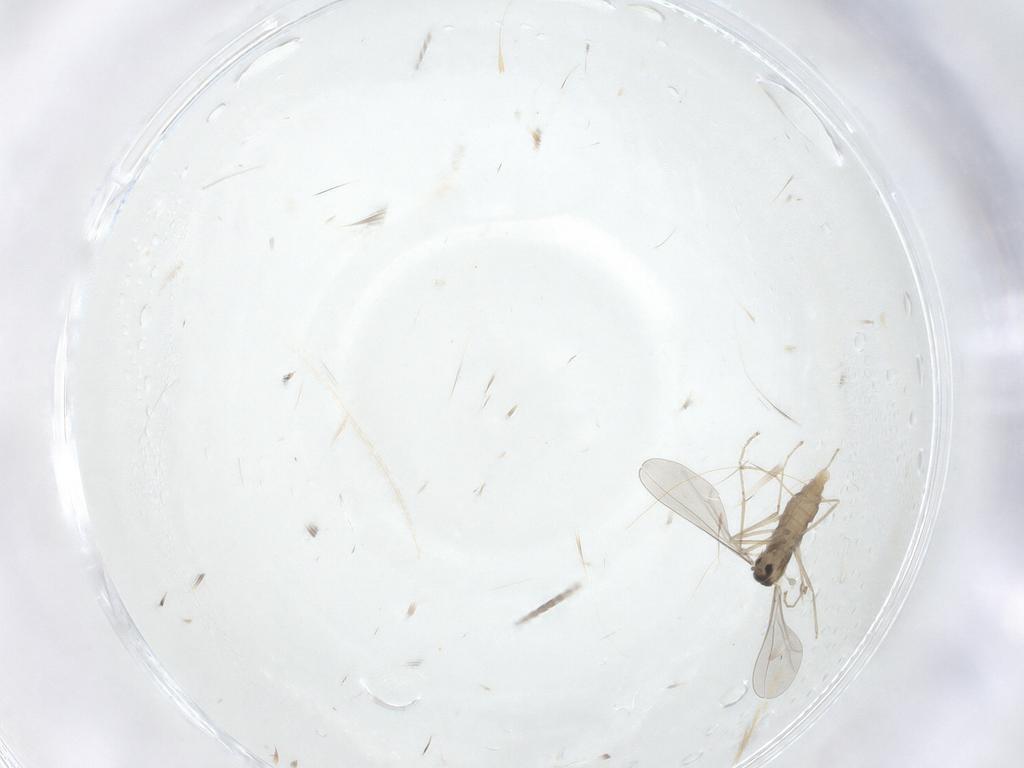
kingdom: Animalia
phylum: Arthropoda
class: Insecta
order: Diptera
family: Cecidomyiidae
